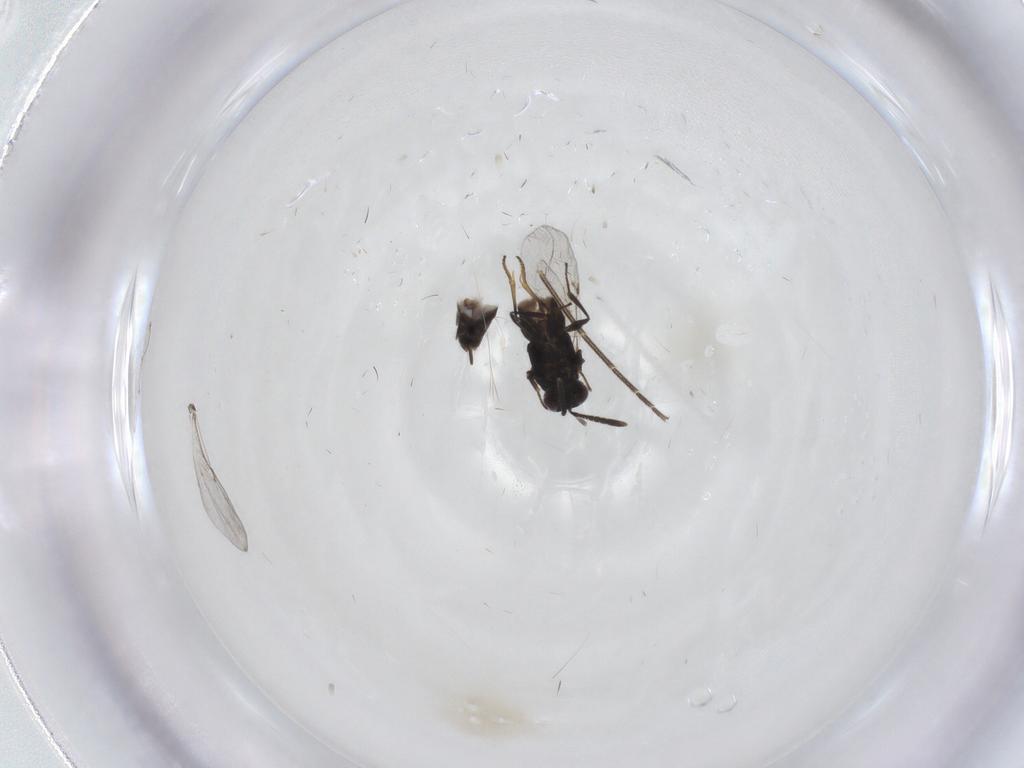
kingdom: Animalia
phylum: Arthropoda
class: Insecta
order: Hymenoptera
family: Encyrtidae
